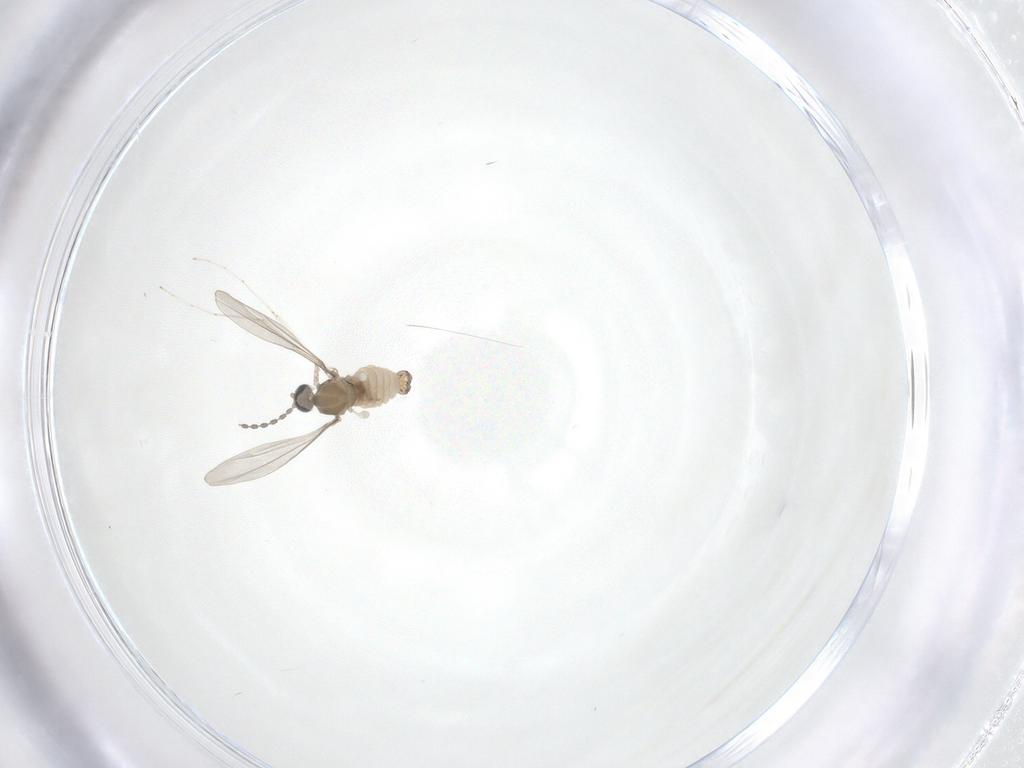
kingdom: Animalia
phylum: Arthropoda
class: Insecta
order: Diptera
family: Cecidomyiidae
